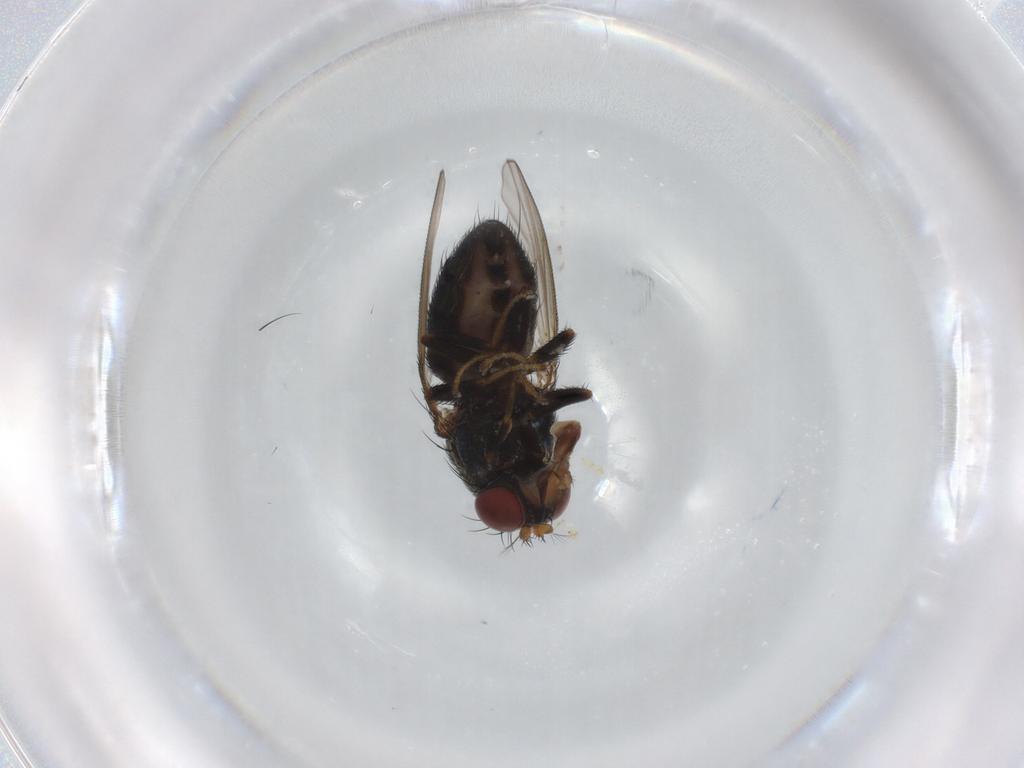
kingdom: Animalia
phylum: Arthropoda
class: Insecta
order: Diptera
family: Ephydridae
